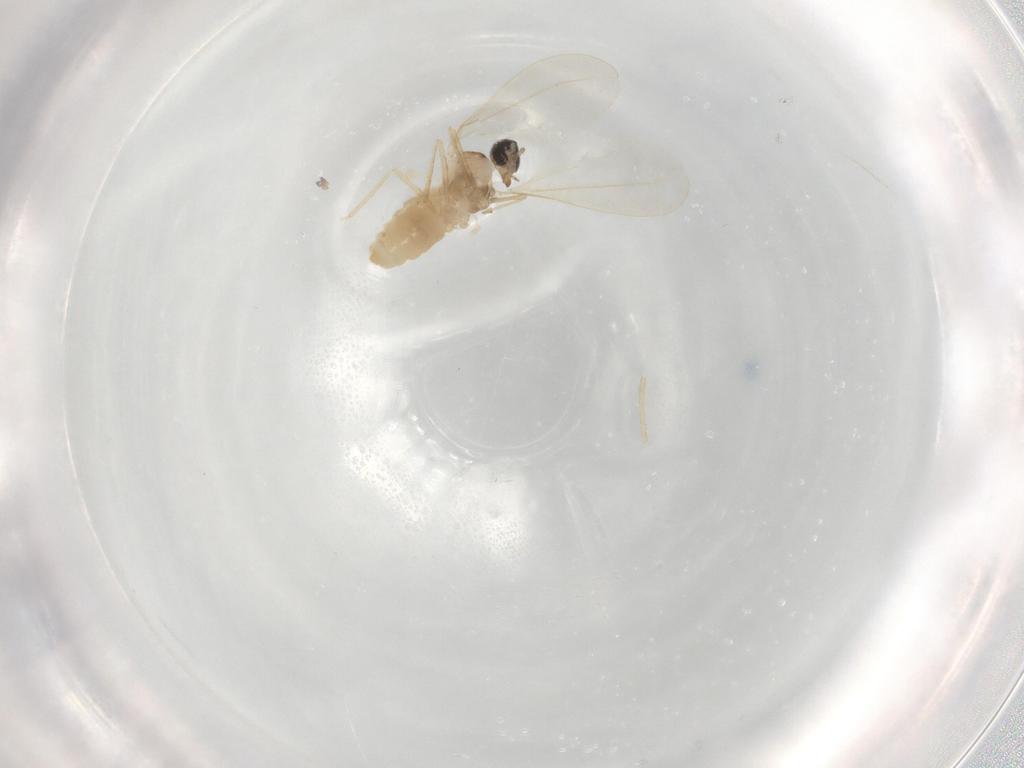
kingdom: Animalia
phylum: Arthropoda
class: Insecta
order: Diptera
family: Cecidomyiidae
